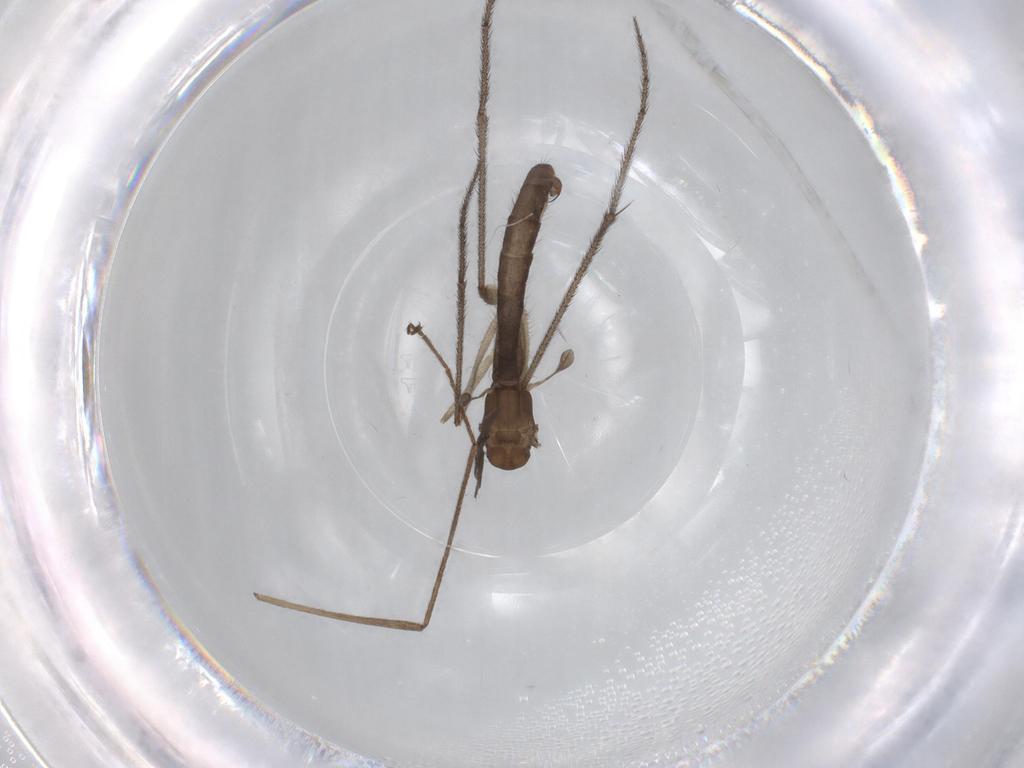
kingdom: Animalia
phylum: Arthropoda
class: Insecta
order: Diptera
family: Ditomyiidae
